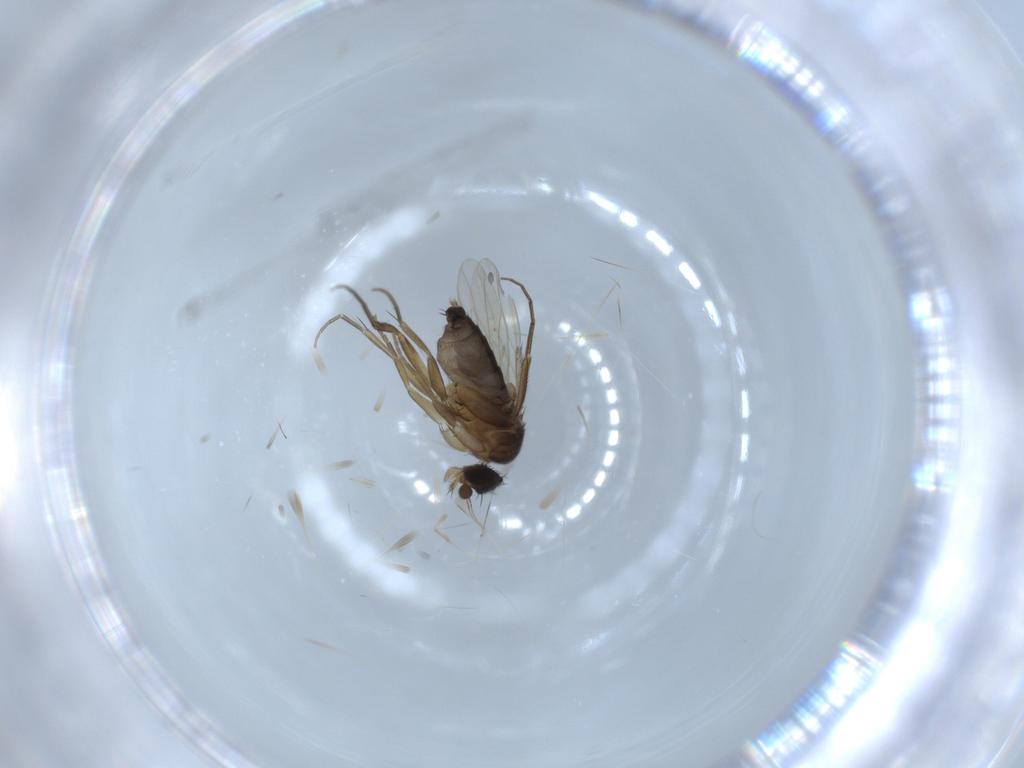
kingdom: Animalia
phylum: Arthropoda
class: Insecta
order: Diptera
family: Phoridae
